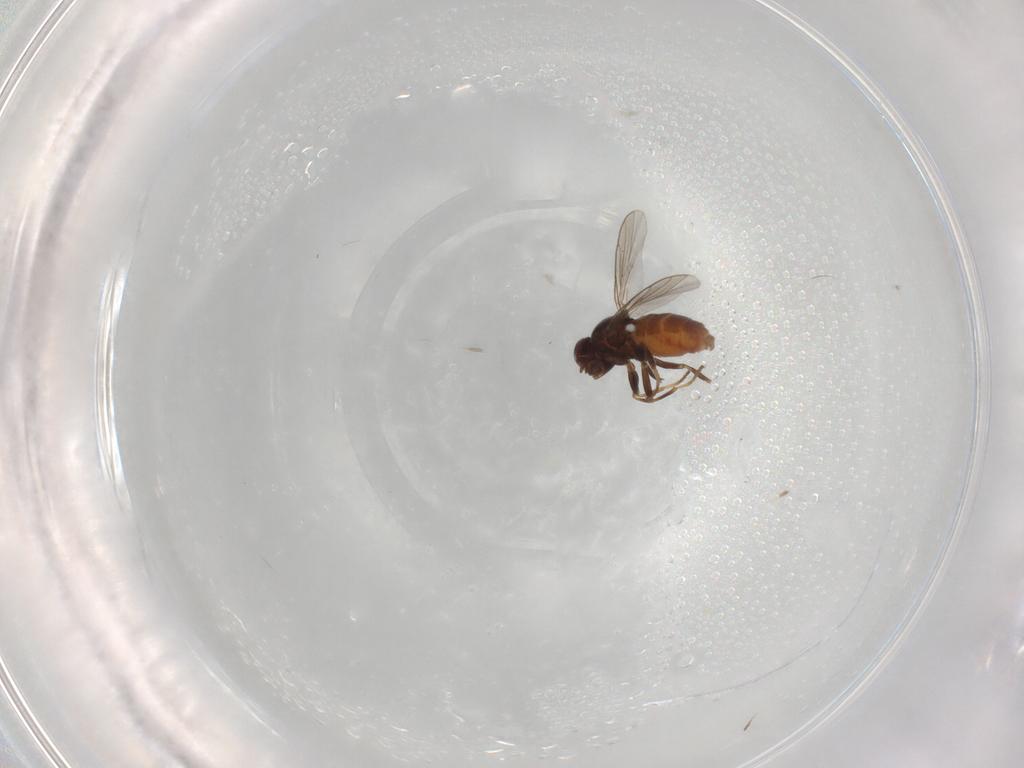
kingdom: Animalia
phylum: Arthropoda
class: Insecta
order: Diptera
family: Chloropidae
